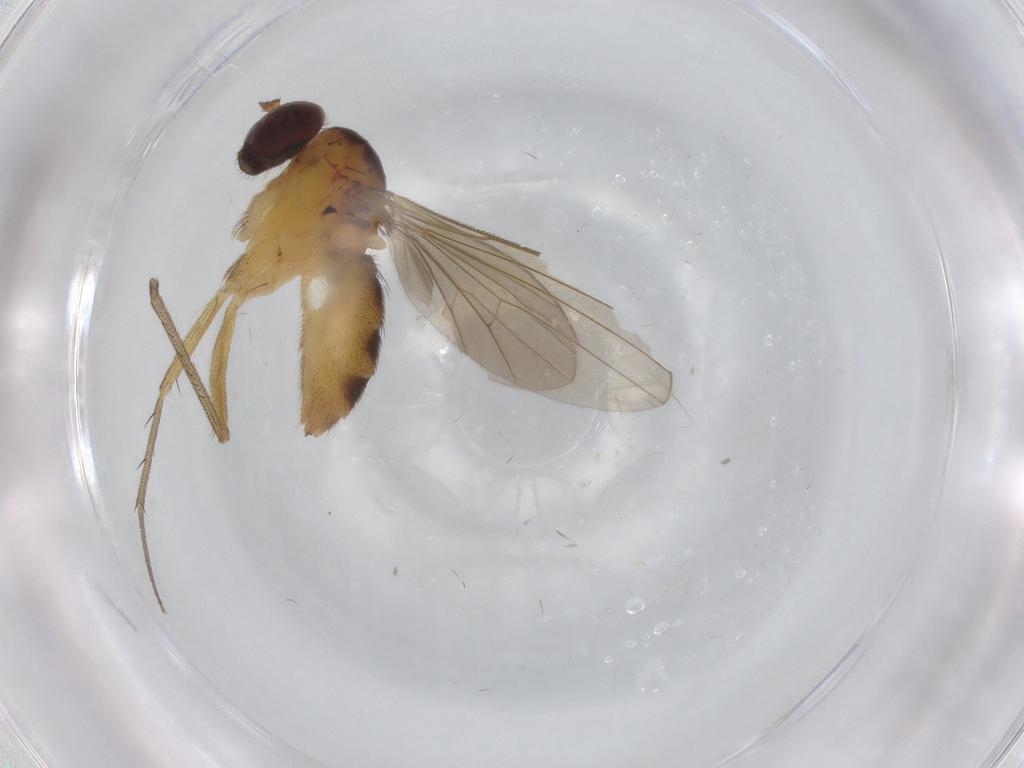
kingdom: Animalia
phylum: Arthropoda
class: Insecta
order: Diptera
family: Dolichopodidae
